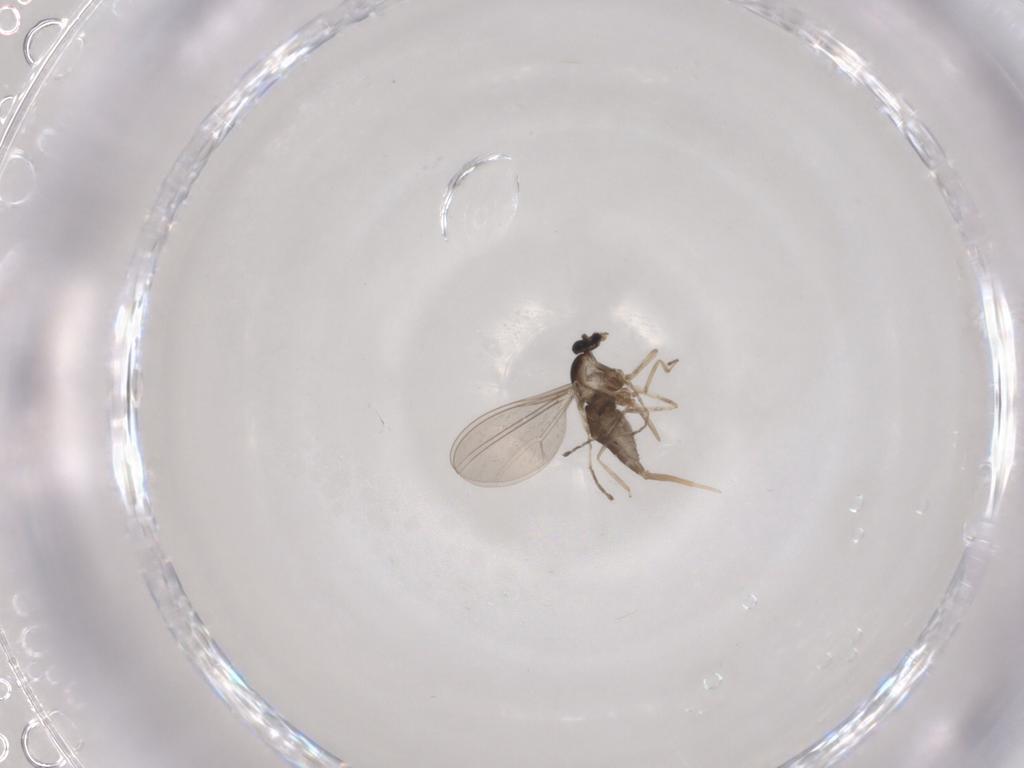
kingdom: Animalia
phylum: Arthropoda
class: Insecta
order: Diptera
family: Cecidomyiidae
